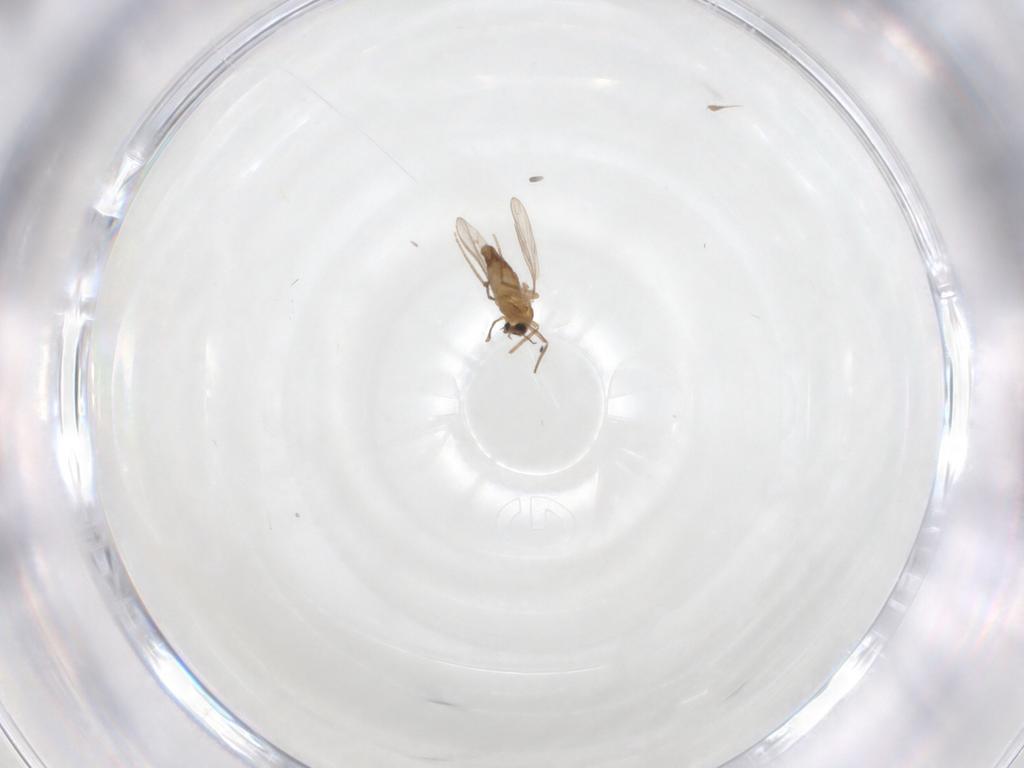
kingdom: Animalia
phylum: Arthropoda
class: Insecta
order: Diptera
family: Chironomidae
